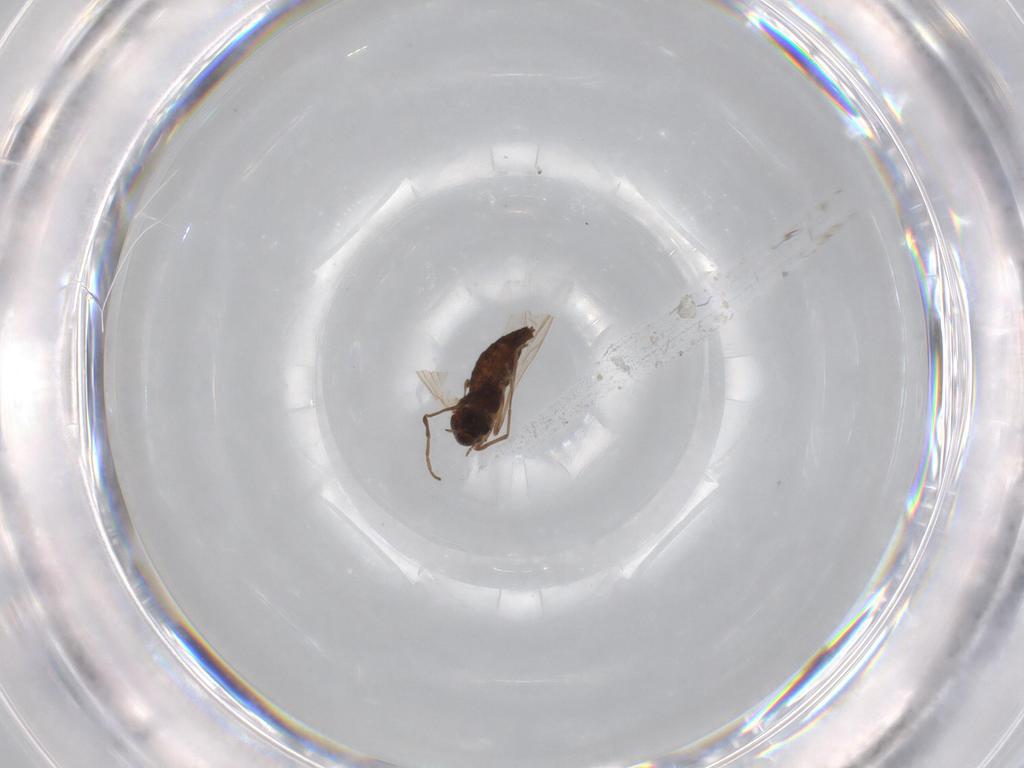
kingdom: Animalia
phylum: Arthropoda
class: Insecta
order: Diptera
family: Chironomidae
